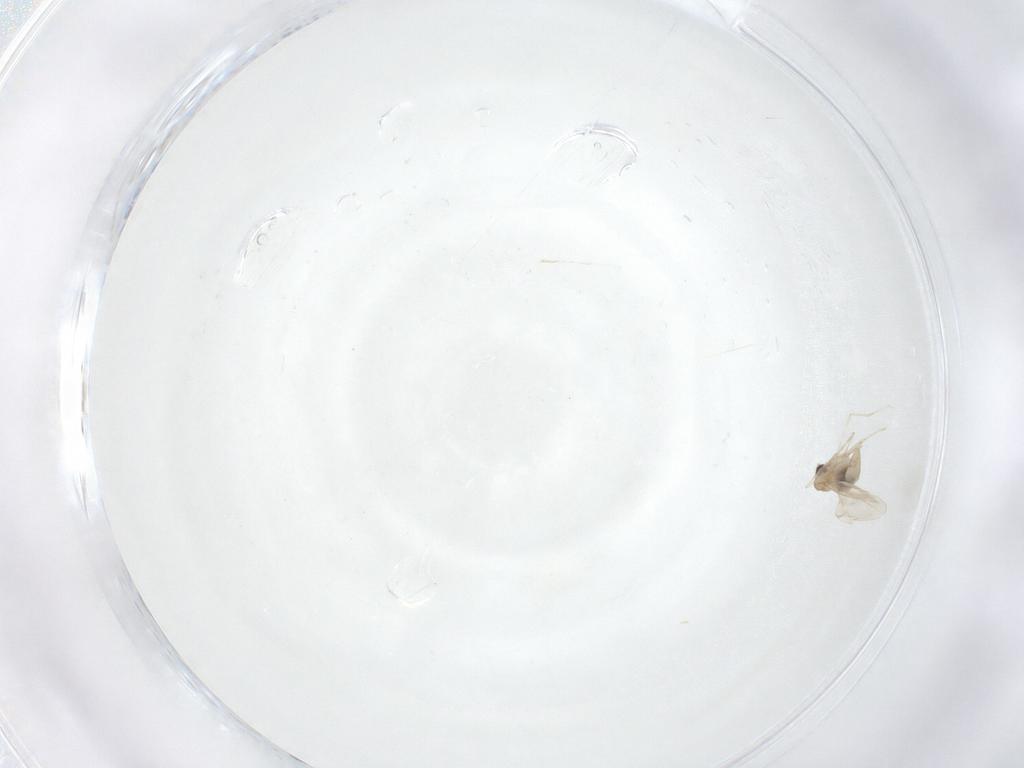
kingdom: Animalia
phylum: Arthropoda
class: Insecta
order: Diptera
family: Cecidomyiidae
